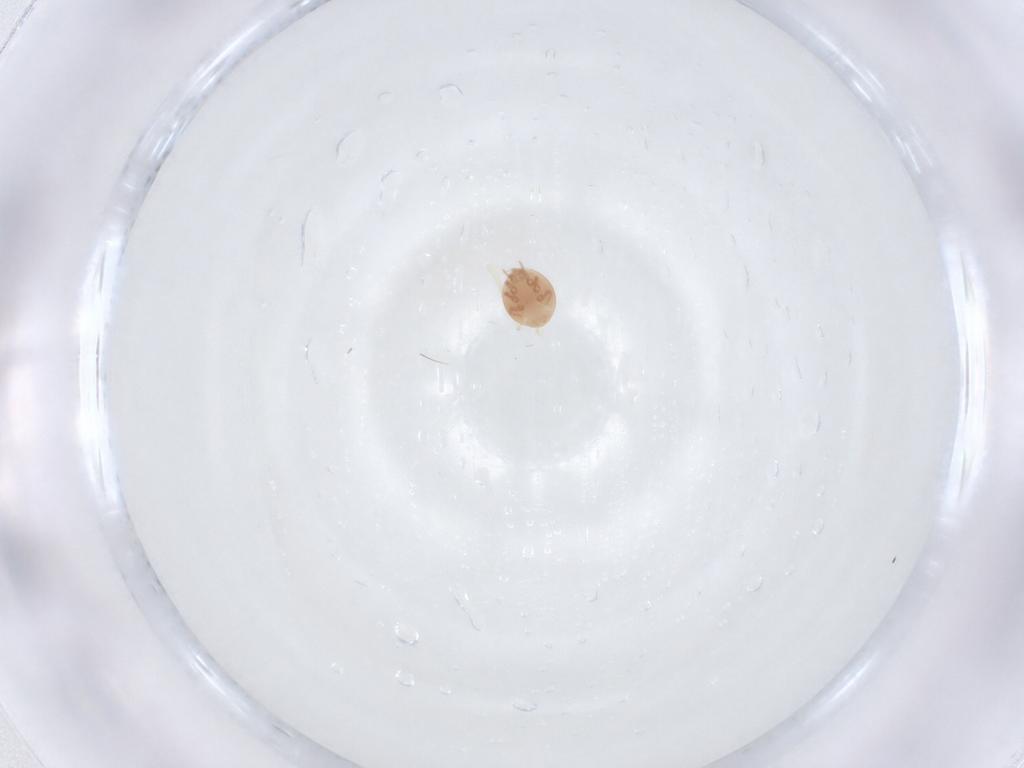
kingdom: Animalia
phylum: Arthropoda
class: Arachnida
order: Mesostigmata
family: Trematuridae
